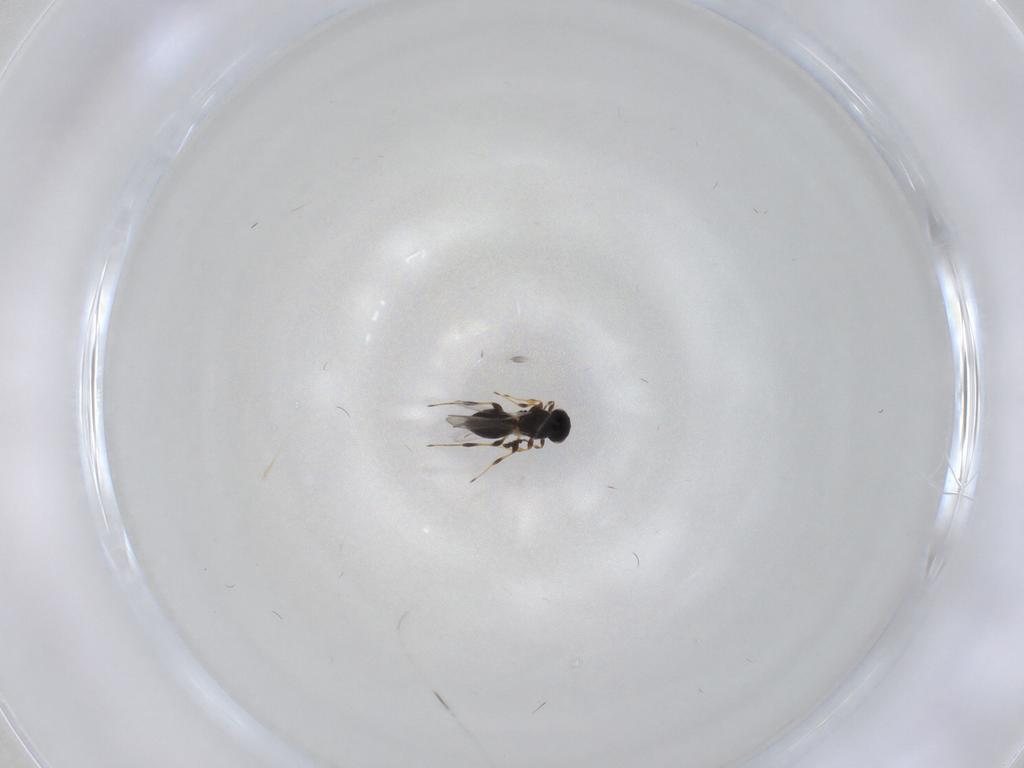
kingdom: Animalia
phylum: Arthropoda
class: Insecta
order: Hymenoptera
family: Platygastridae
